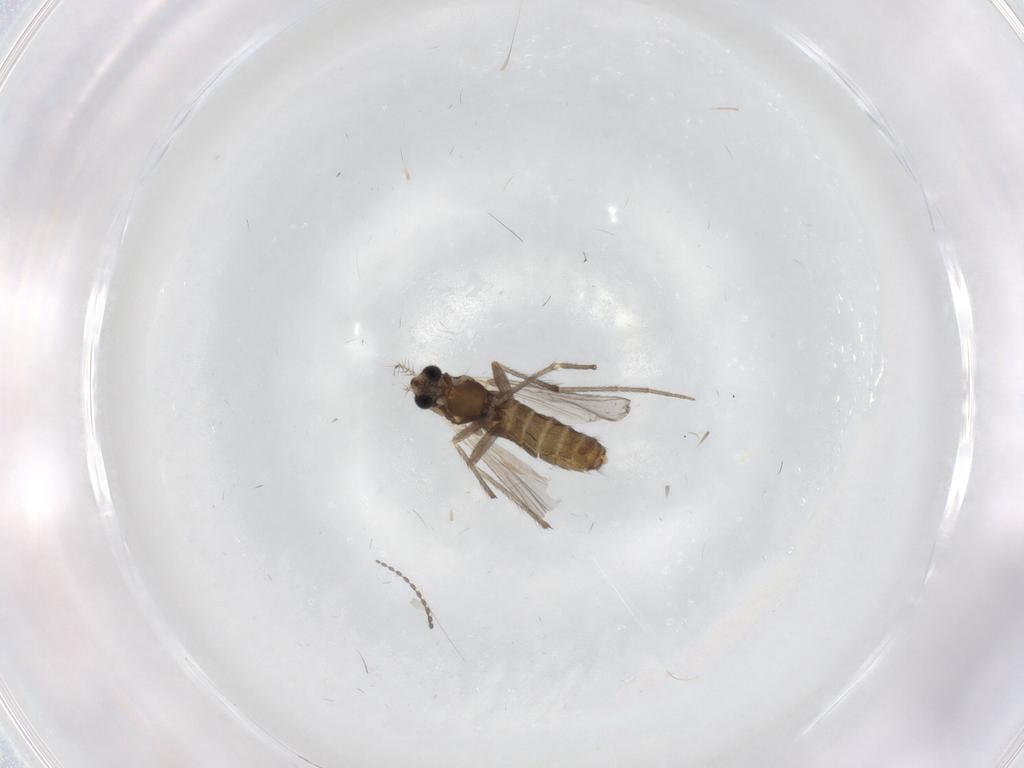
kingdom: Animalia
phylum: Arthropoda
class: Insecta
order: Diptera
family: Chironomidae
